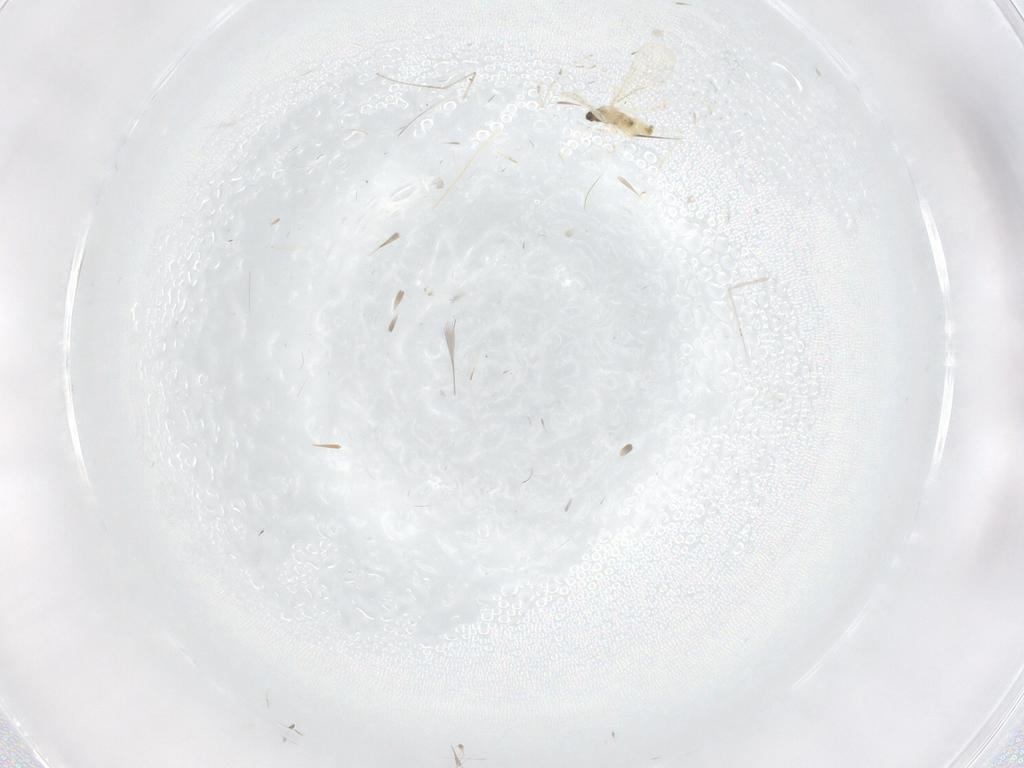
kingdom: Animalia
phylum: Arthropoda
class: Insecta
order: Diptera
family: Cecidomyiidae
